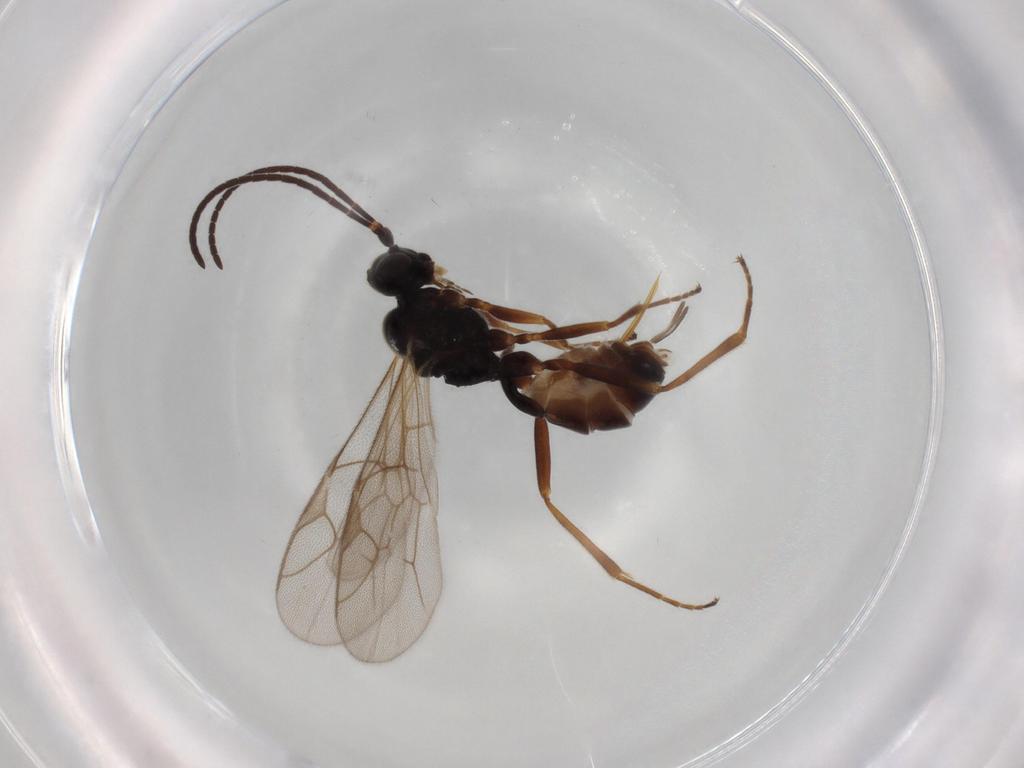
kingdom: Animalia
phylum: Arthropoda
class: Insecta
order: Hymenoptera
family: Ichneumonidae
